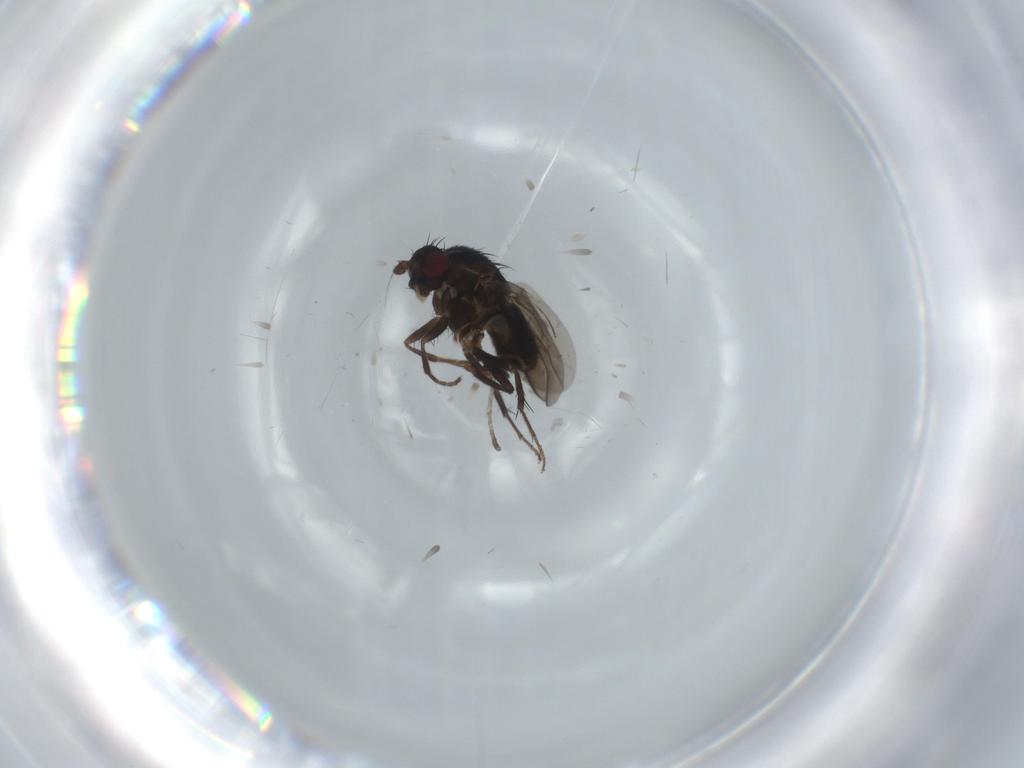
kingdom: Animalia
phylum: Arthropoda
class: Insecta
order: Diptera
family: Sphaeroceridae
